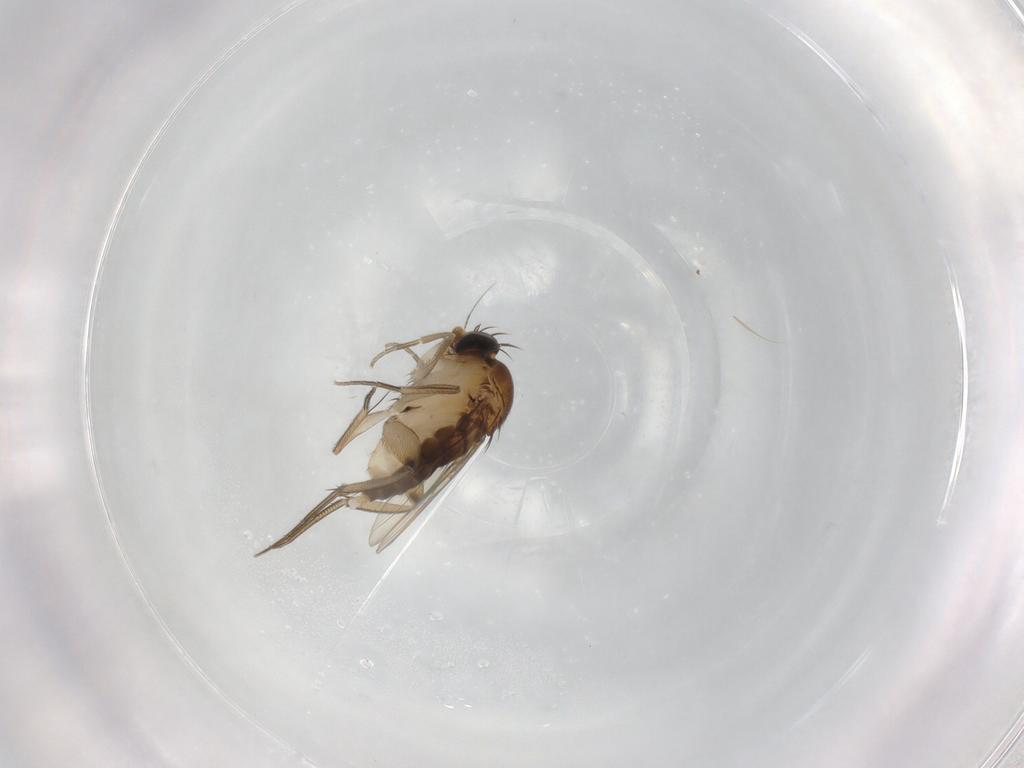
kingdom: Animalia
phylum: Arthropoda
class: Insecta
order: Diptera
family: Phoridae
